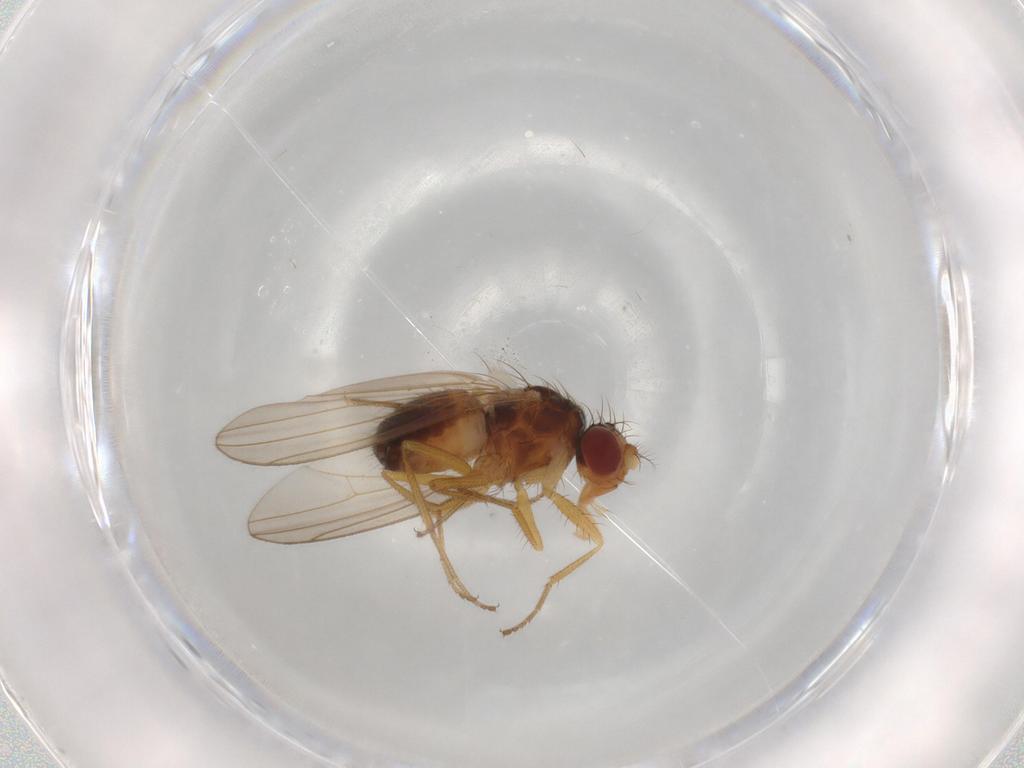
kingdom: Animalia
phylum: Arthropoda
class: Insecta
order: Diptera
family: Drosophilidae
